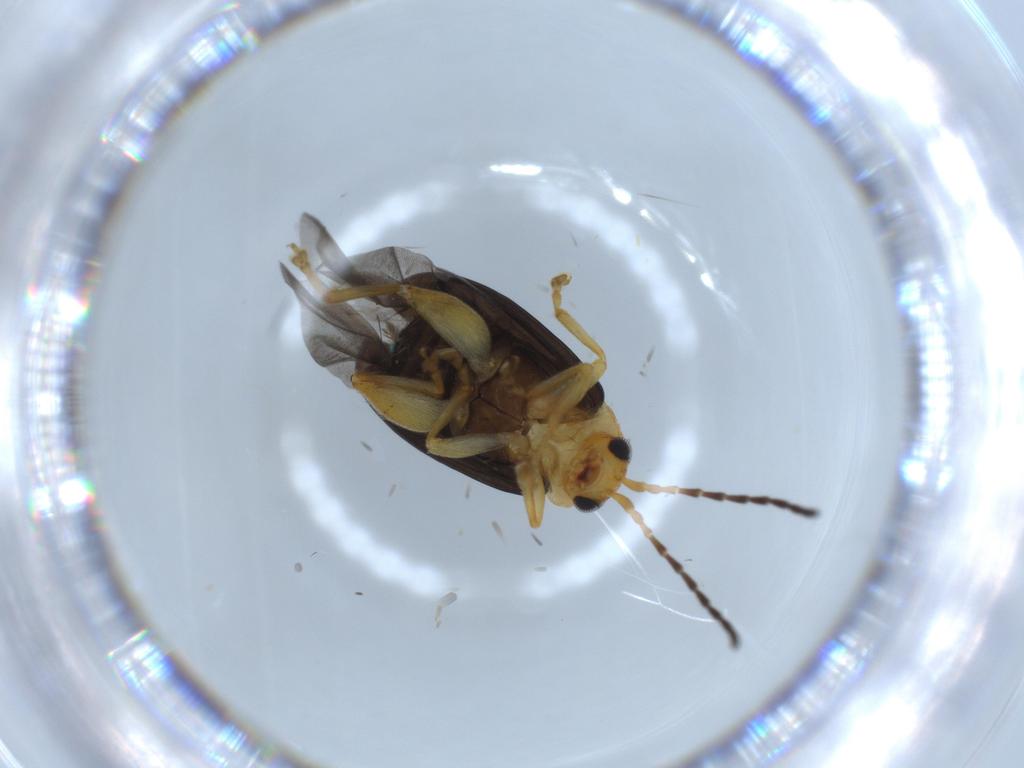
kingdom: Animalia
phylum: Arthropoda
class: Insecta
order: Coleoptera
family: Chrysomelidae
